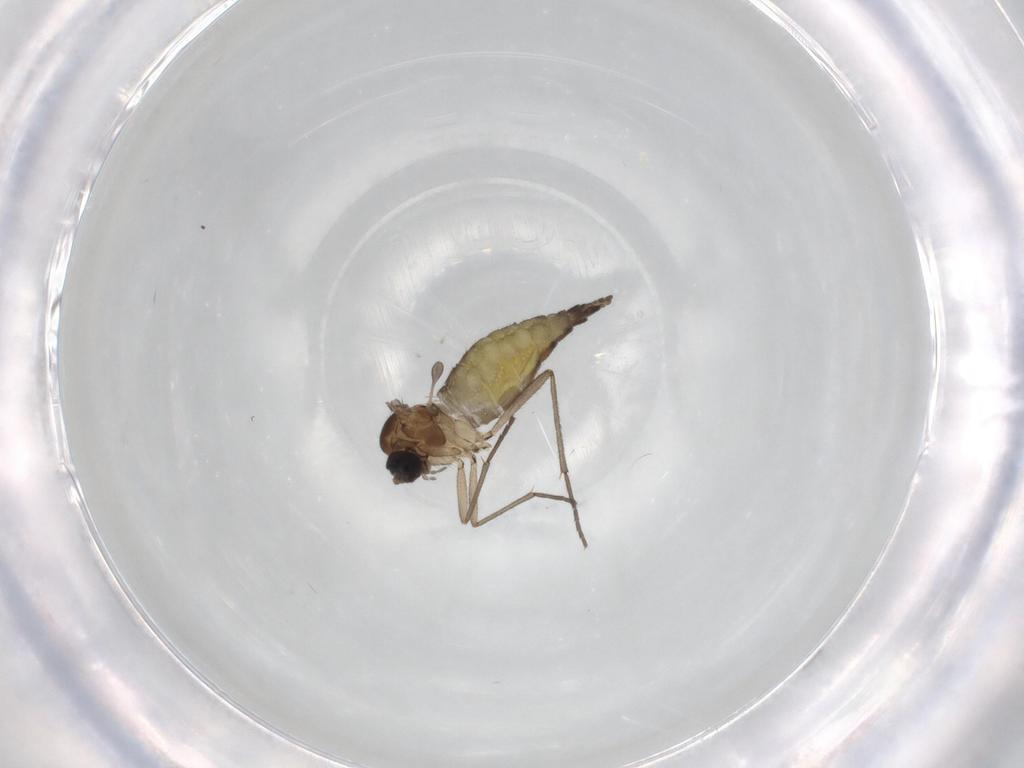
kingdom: Animalia
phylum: Arthropoda
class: Insecta
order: Diptera
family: Sciaridae
